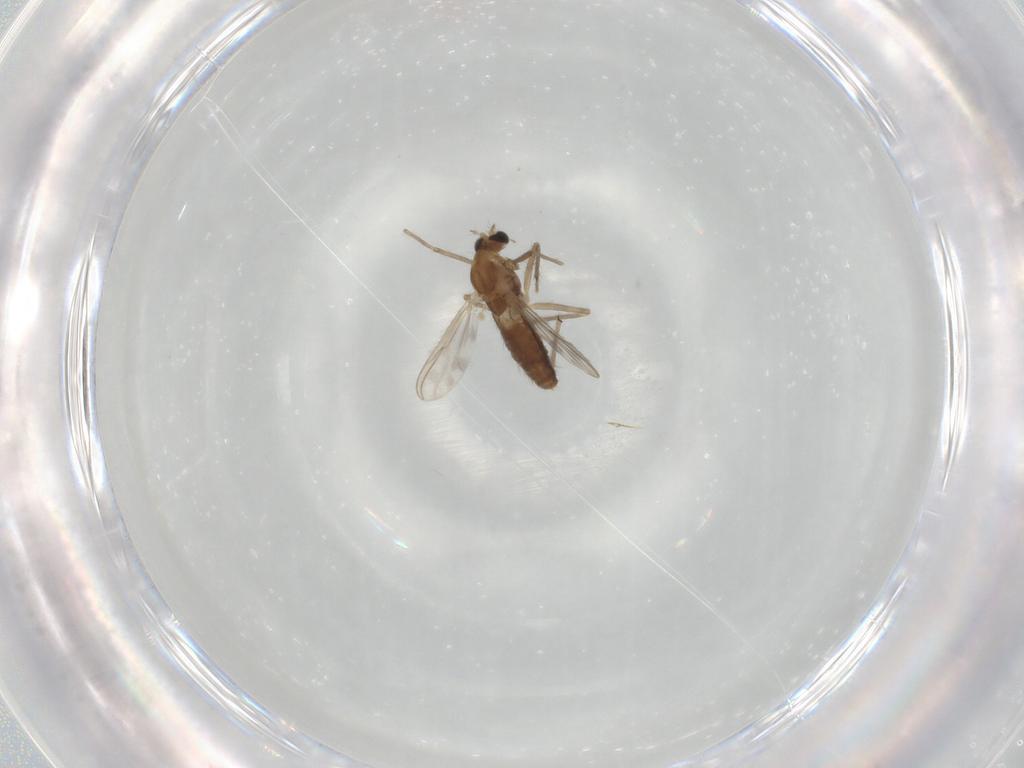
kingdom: Animalia
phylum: Arthropoda
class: Insecta
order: Diptera
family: Chironomidae
